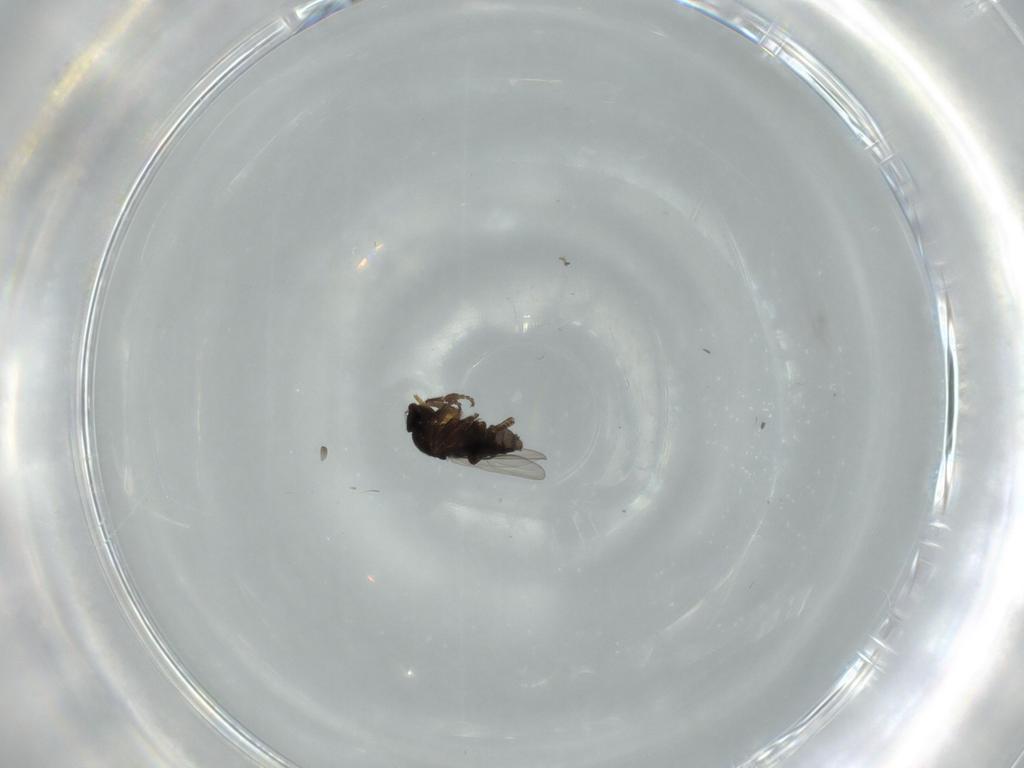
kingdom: Animalia
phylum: Arthropoda
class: Insecta
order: Diptera
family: Phoridae
